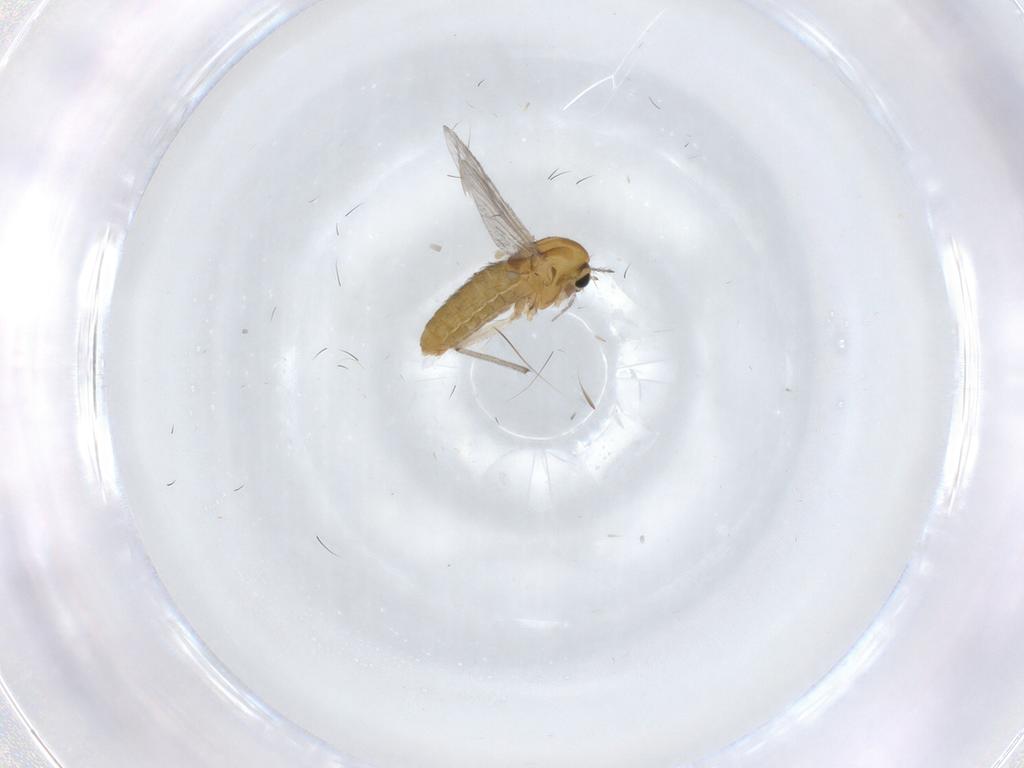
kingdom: Animalia
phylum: Arthropoda
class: Insecta
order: Diptera
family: Chironomidae
